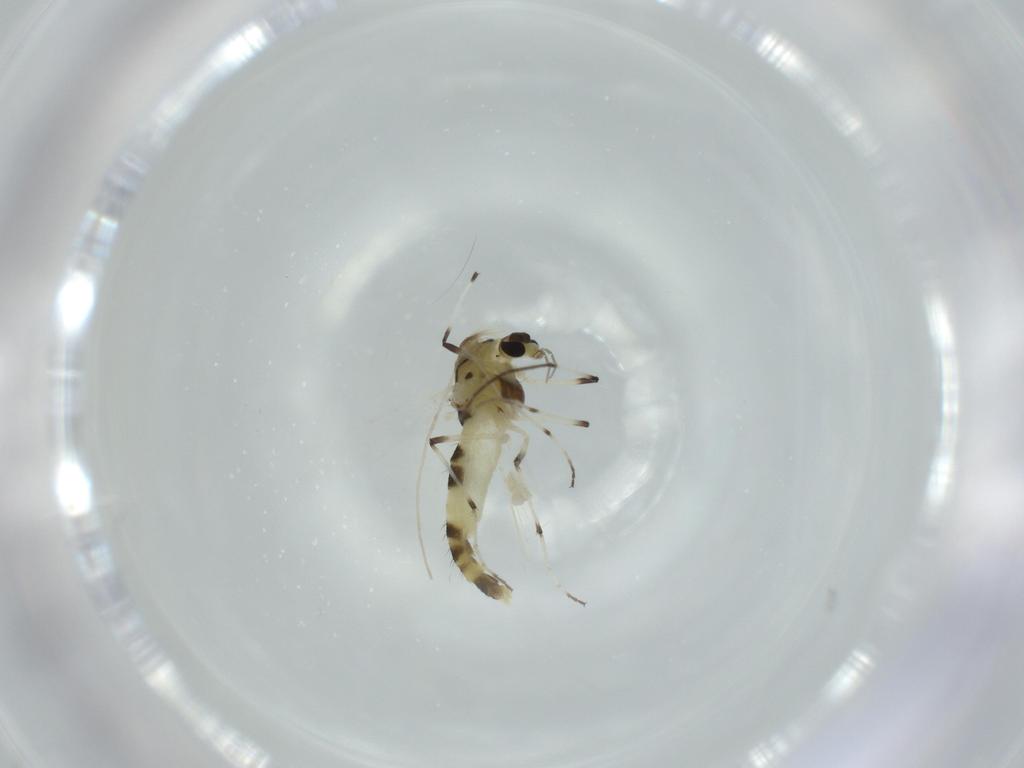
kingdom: Animalia
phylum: Arthropoda
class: Insecta
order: Diptera
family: Chironomidae
